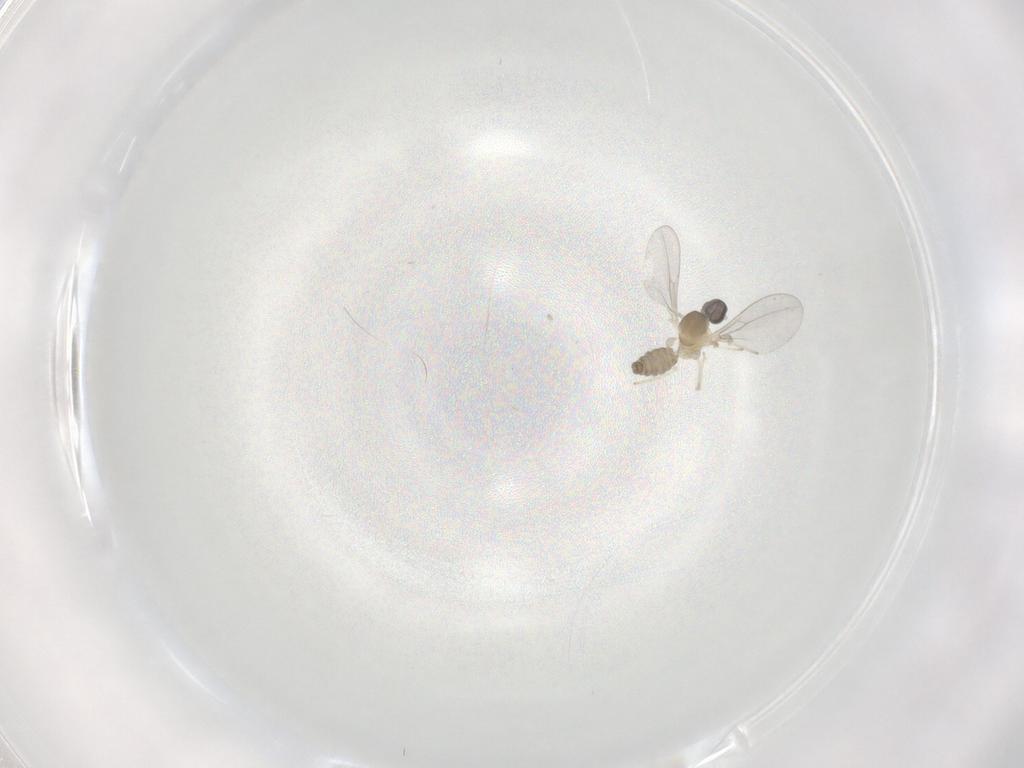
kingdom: Animalia
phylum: Arthropoda
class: Insecta
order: Diptera
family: Cecidomyiidae
